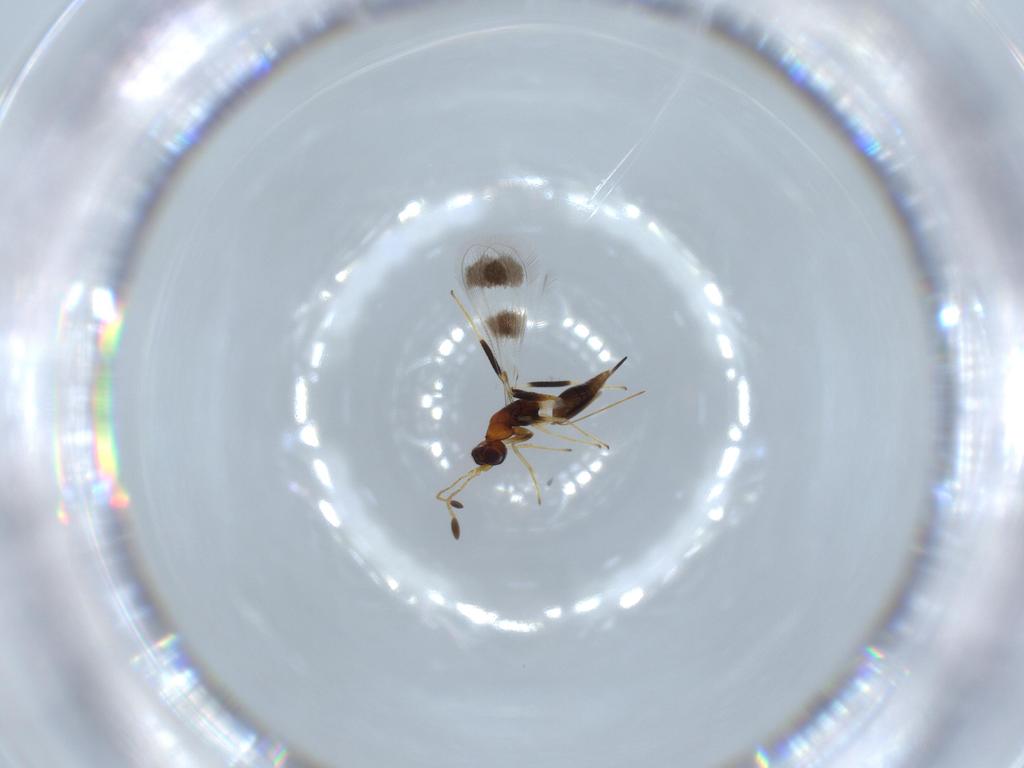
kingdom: Animalia
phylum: Arthropoda
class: Insecta
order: Hymenoptera
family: Mymaridae
